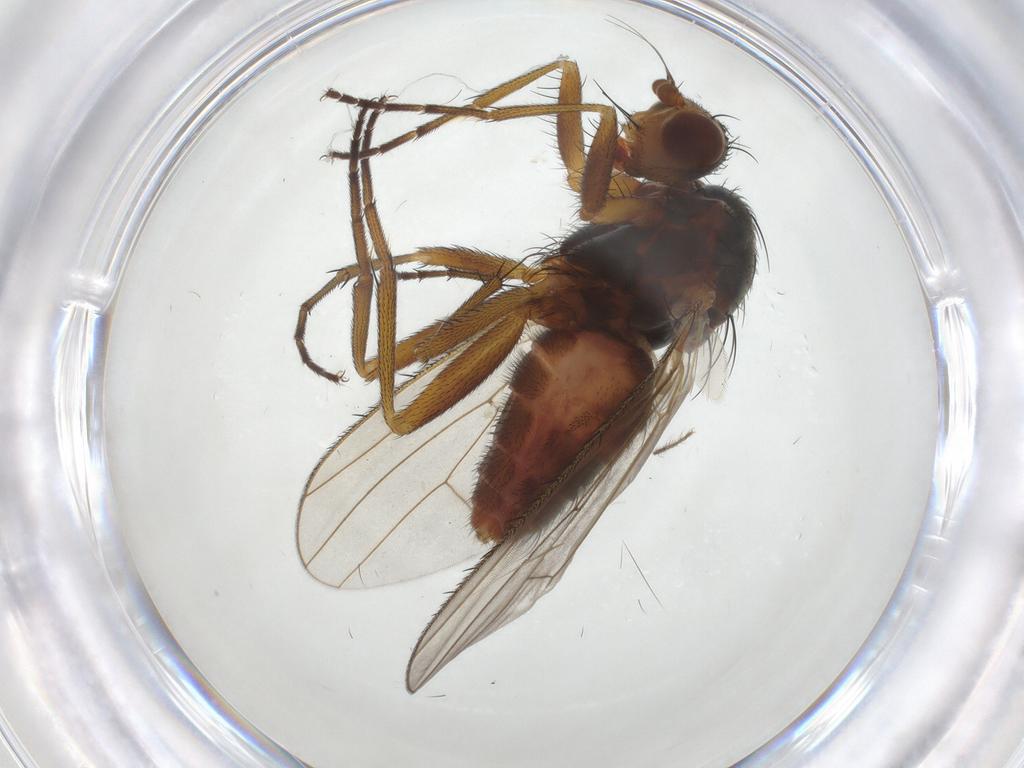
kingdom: Animalia
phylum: Arthropoda
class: Insecta
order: Diptera
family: Heleomyzidae
